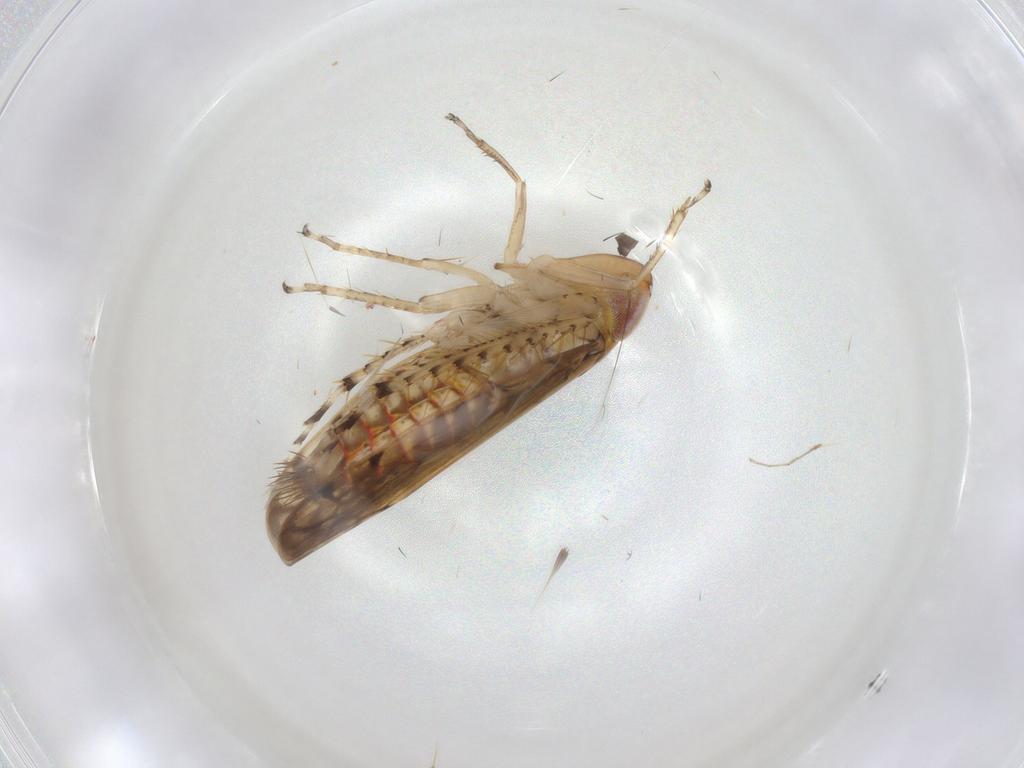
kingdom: Animalia
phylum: Arthropoda
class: Insecta
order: Hemiptera
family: Cicadellidae
